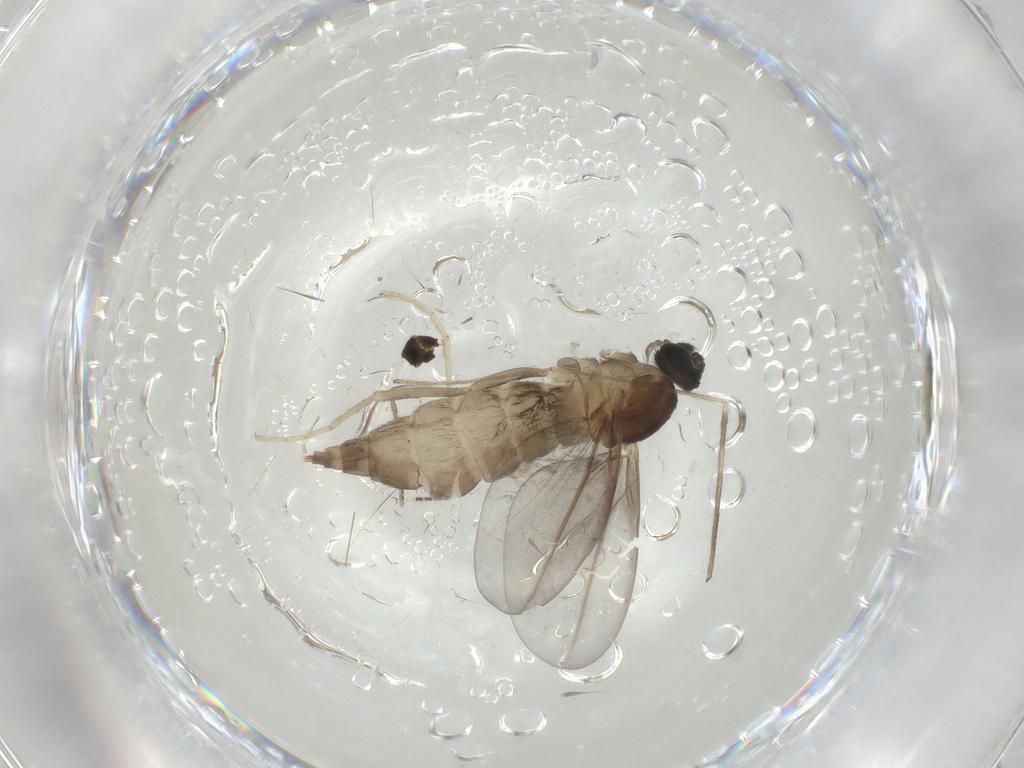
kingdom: Animalia
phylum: Arthropoda
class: Insecta
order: Diptera
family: Cecidomyiidae
